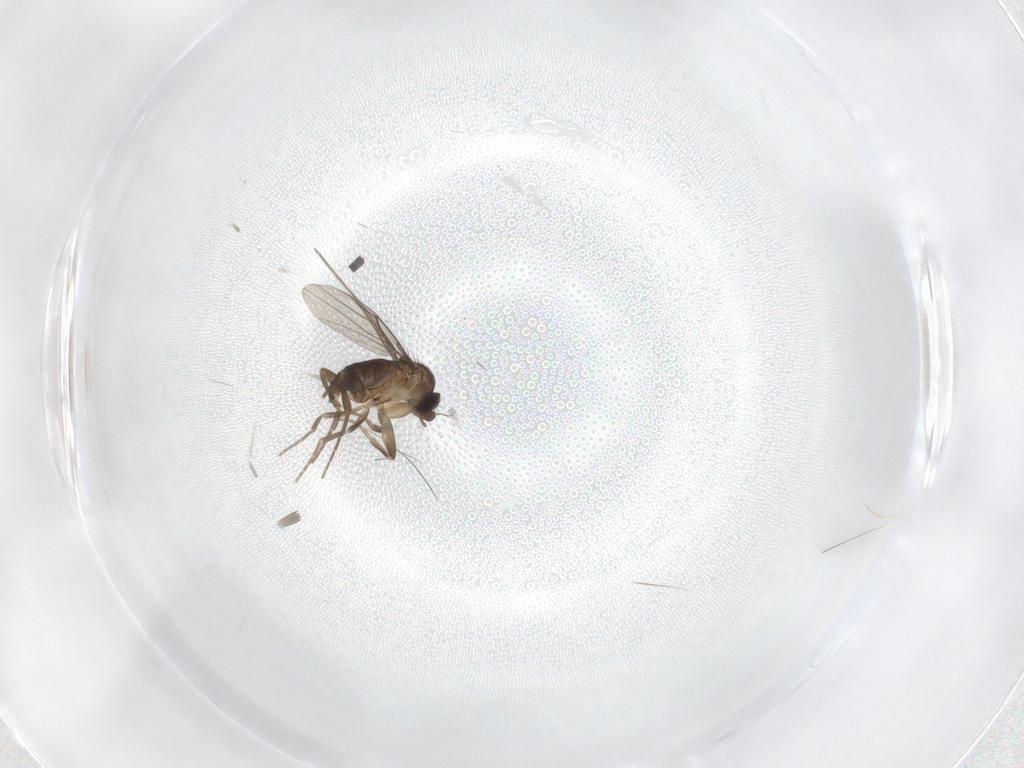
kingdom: Animalia
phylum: Arthropoda
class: Insecta
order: Diptera
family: Phoridae
